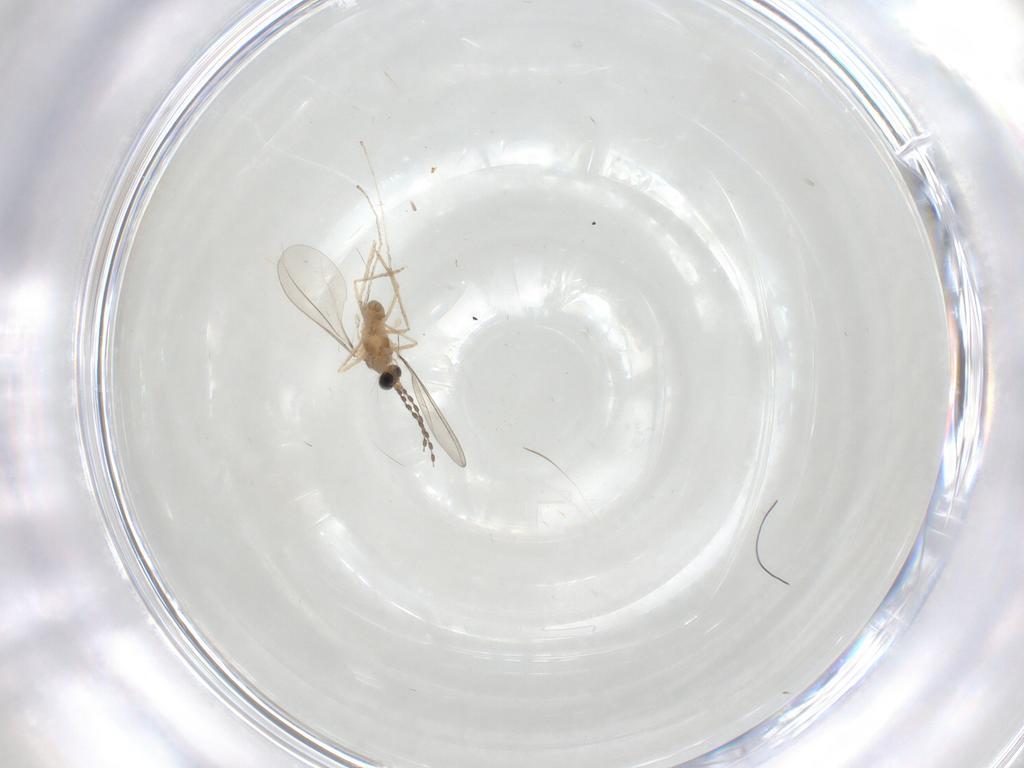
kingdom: Animalia
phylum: Arthropoda
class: Insecta
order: Diptera
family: Cecidomyiidae
